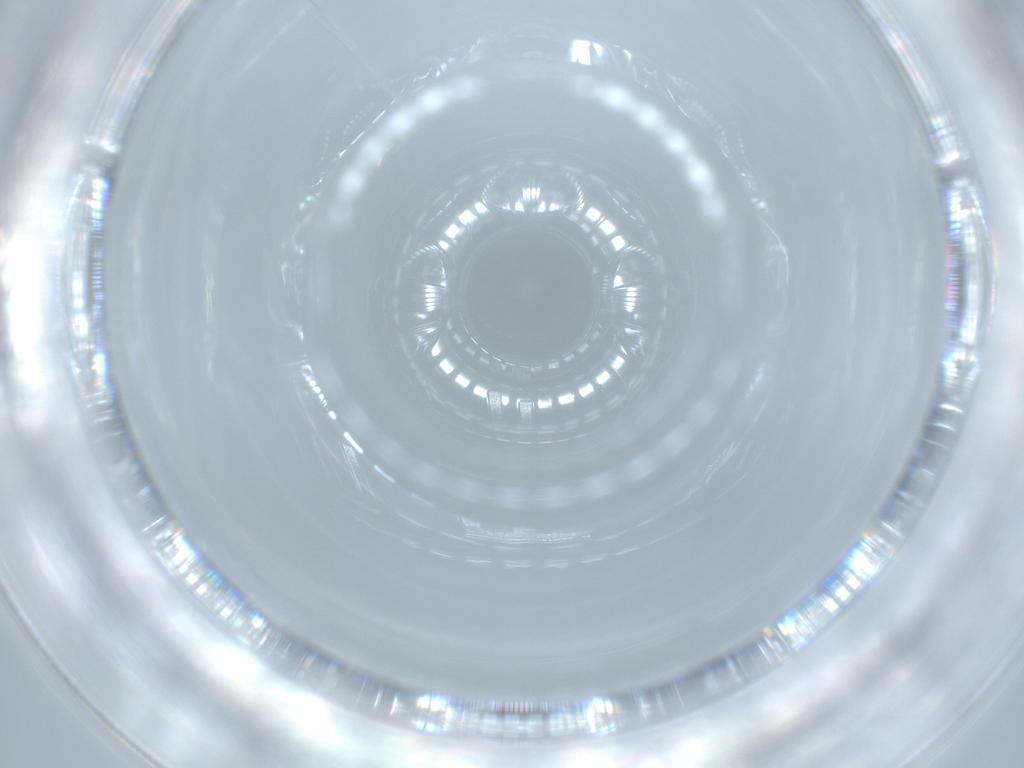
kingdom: Animalia
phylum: Arthropoda
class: Insecta
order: Diptera
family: Cecidomyiidae
